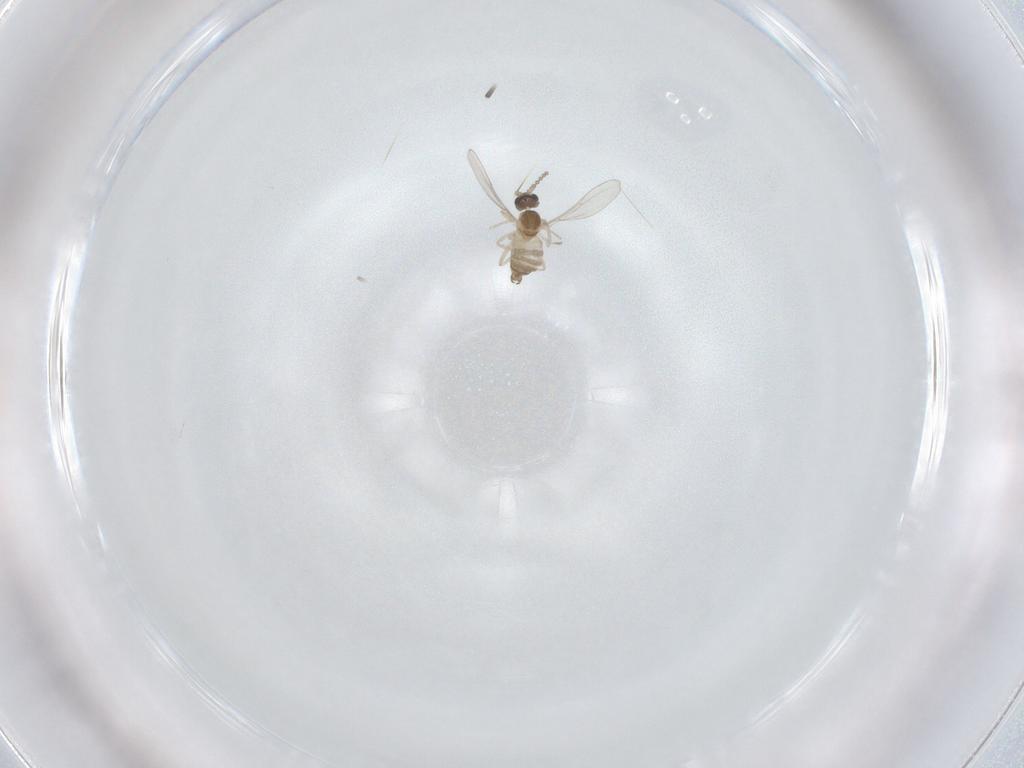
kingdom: Animalia
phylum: Arthropoda
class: Insecta
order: Diptera
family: Cecidomyiidae
